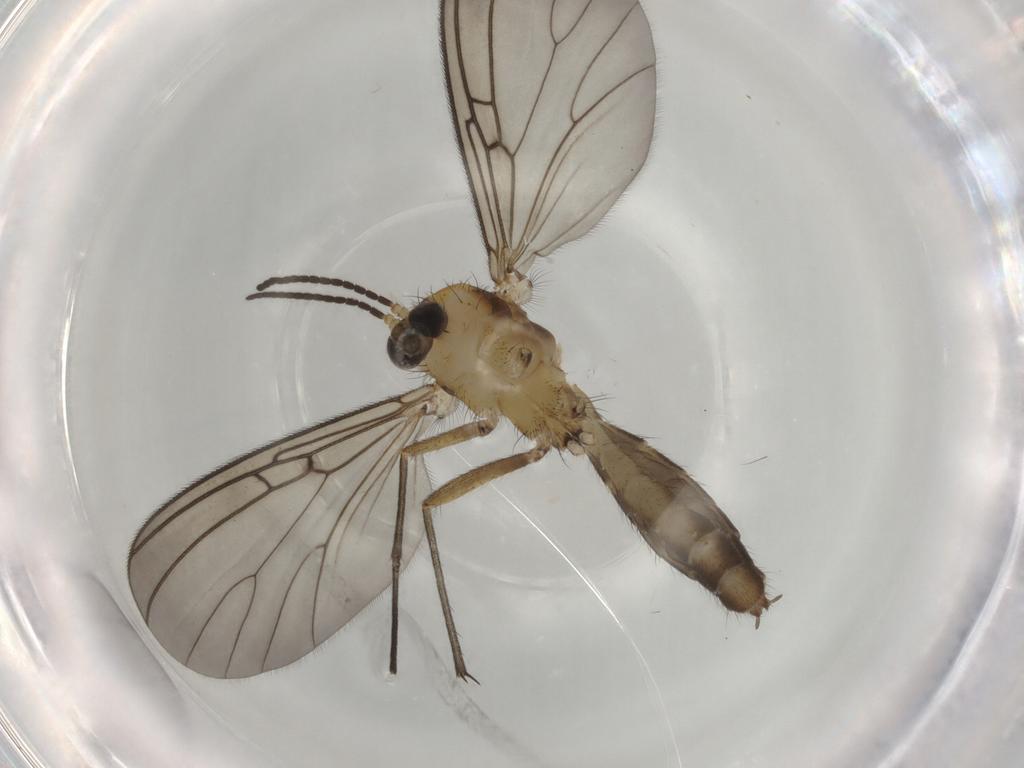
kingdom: Animalia
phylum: Arthropoda
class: Insecta
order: Diptera
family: Mycetophilidae
